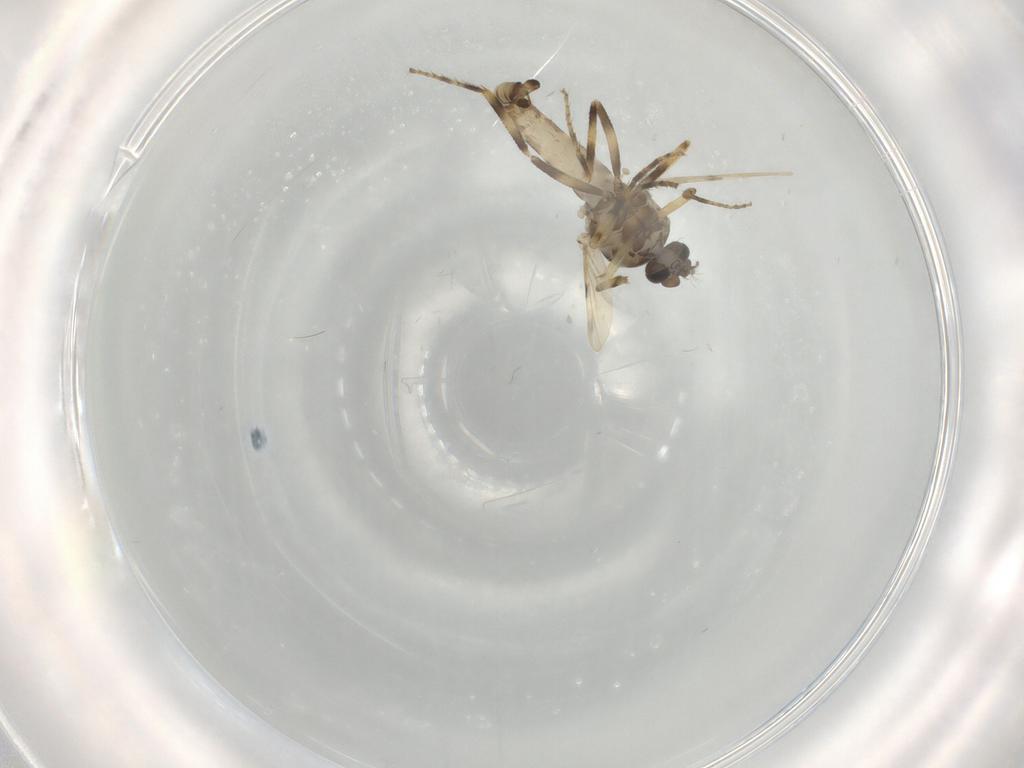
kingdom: Animalia
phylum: Arthropoda
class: Insecta
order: Diptera
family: Ceratopogonidae
